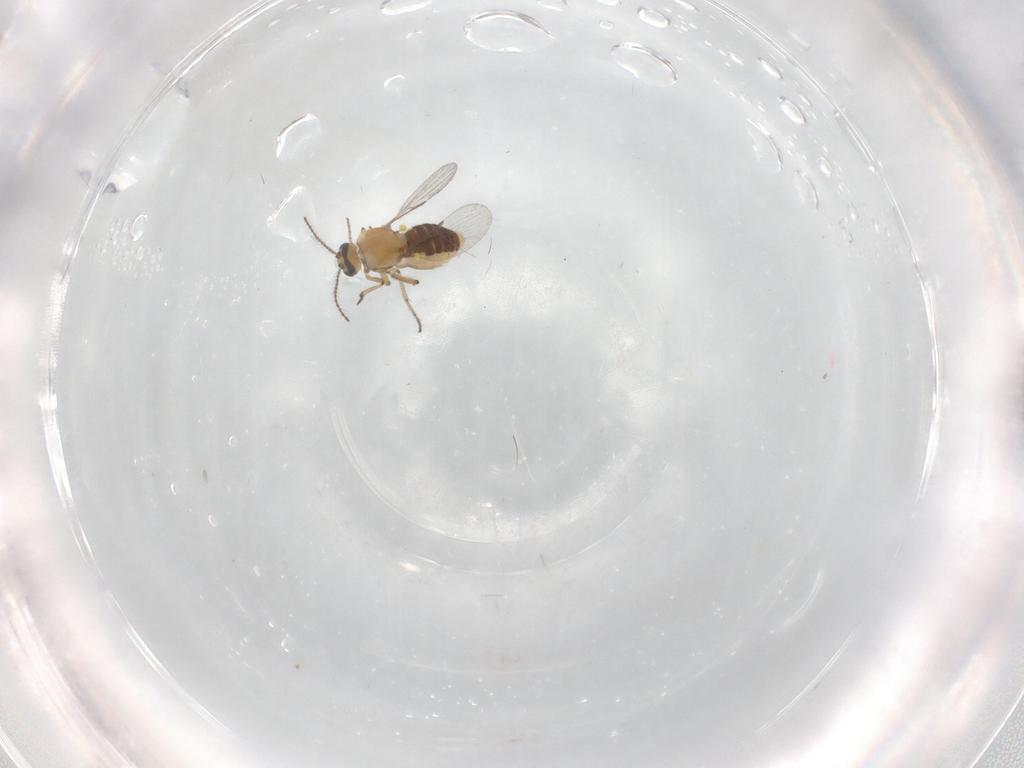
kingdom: Animalia
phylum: Arthropoda
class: Insecta
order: Diptera
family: Ceratopogonidae
